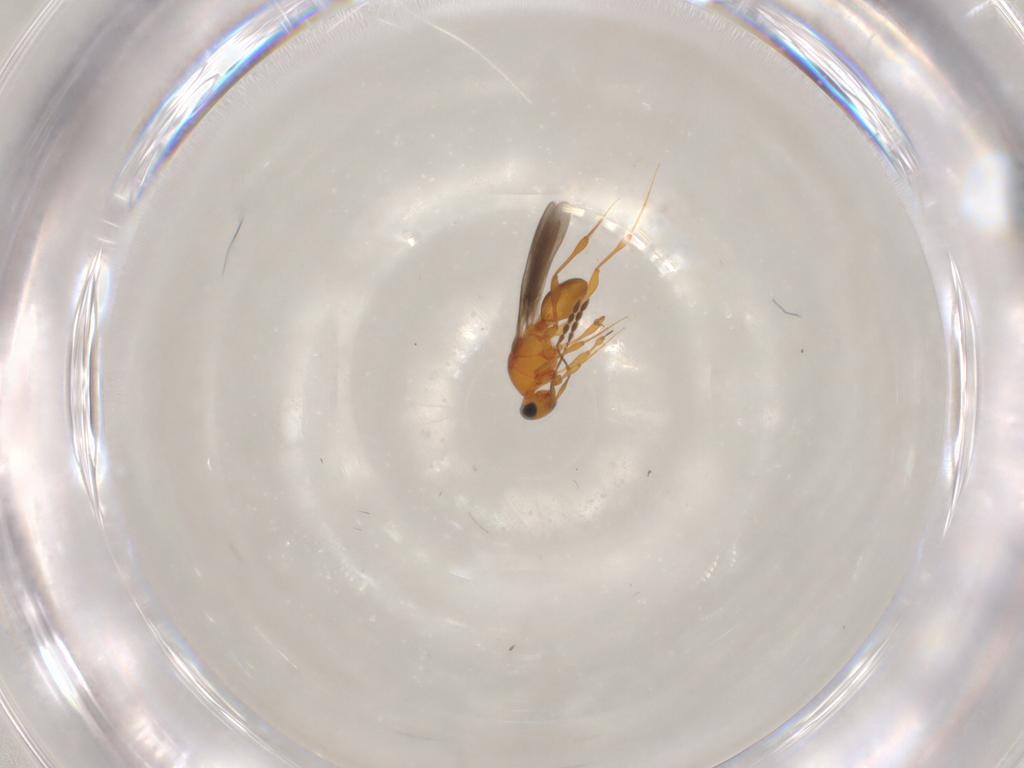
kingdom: Animalia
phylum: Arthropoda
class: Insecta
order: Hymenoptera
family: Platygastridae
